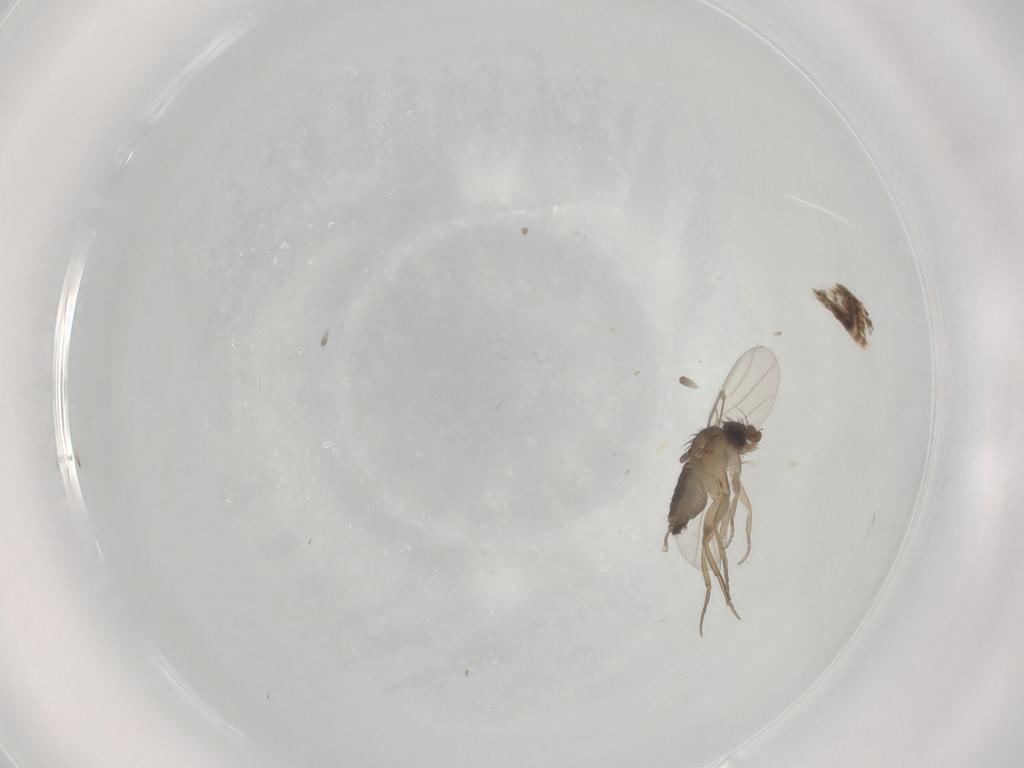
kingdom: Animalia
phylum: Arthropoda
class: Insecta
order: Diptera
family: Phoridae
